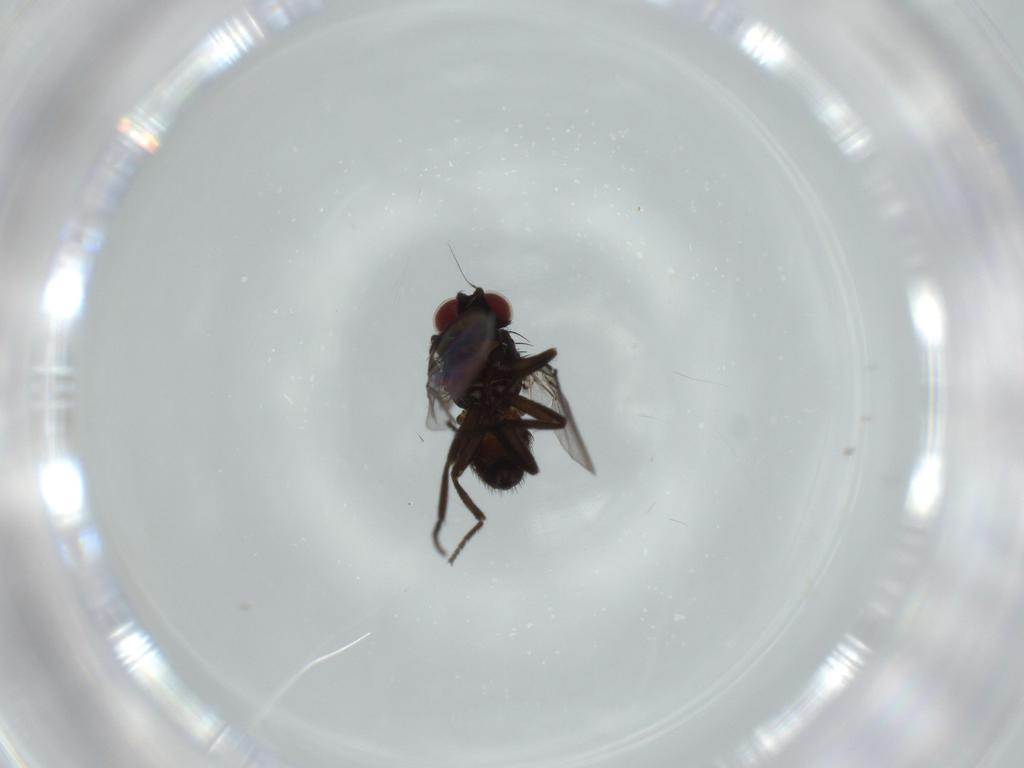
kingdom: Animalia
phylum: Arthropoda
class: Insecta
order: Diptera
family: Agromyzidae
